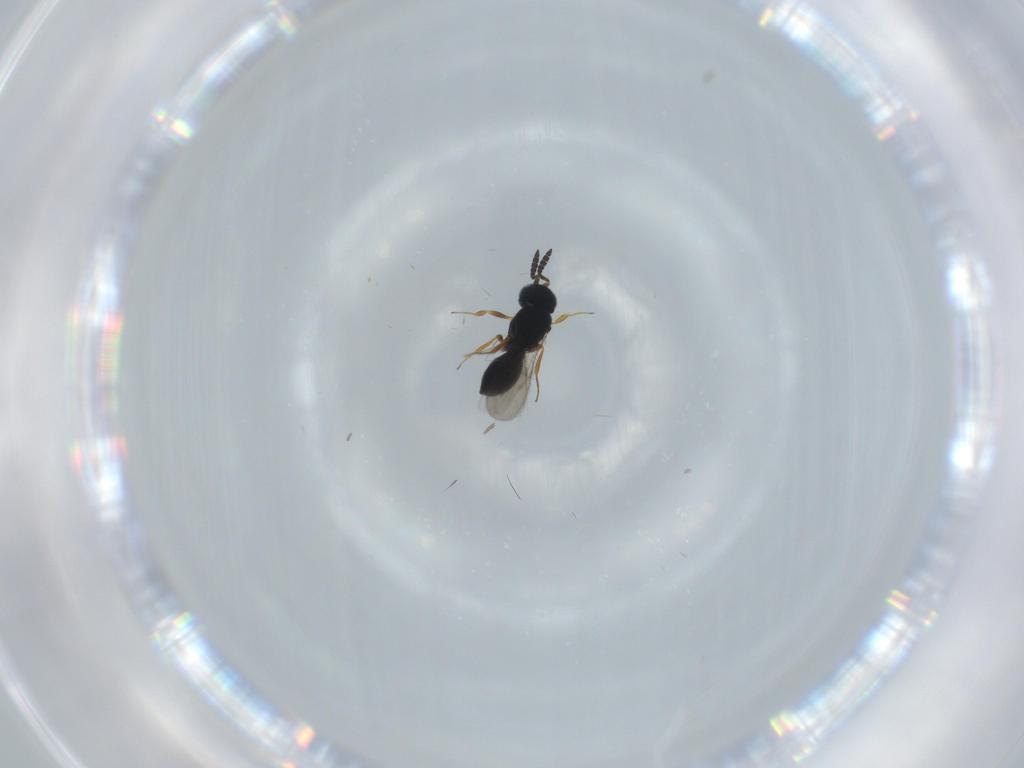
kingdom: Animalia
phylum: Arthropoda
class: Insecta
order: Hymenoptera
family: Scelionidae
